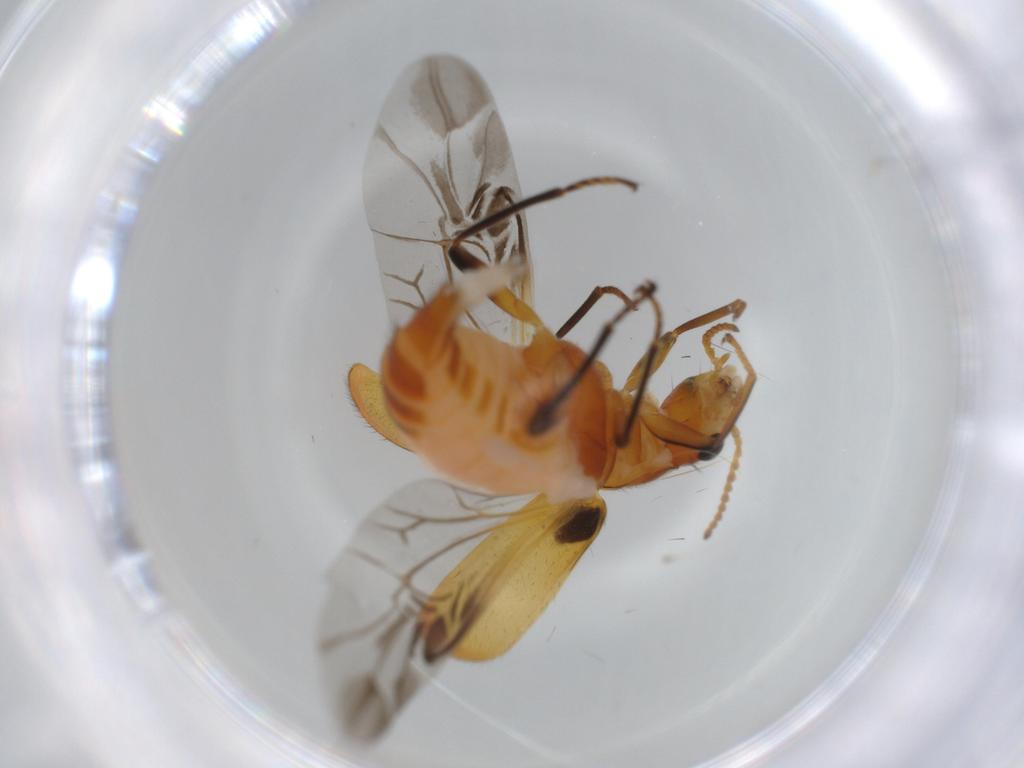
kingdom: Animalia
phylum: Arthropoda
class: Insecta
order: Coleoptera
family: Melyridae
